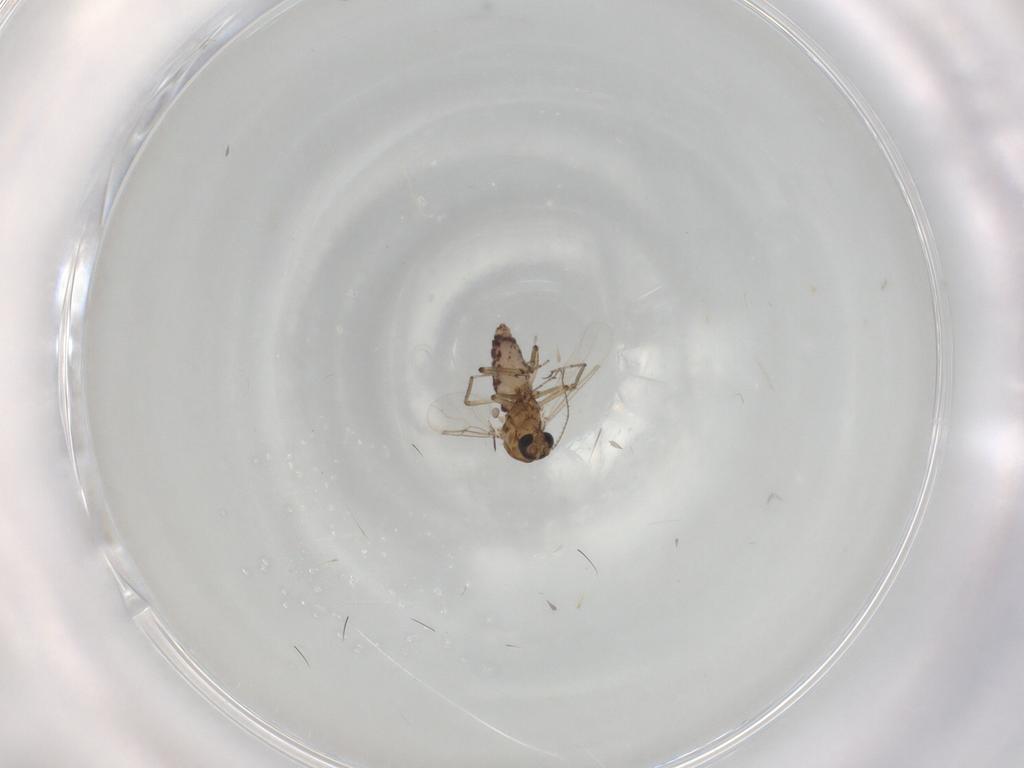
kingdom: Animalia
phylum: Arthropoda
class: Insecta
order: Diptera
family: Ceratopogonidae
